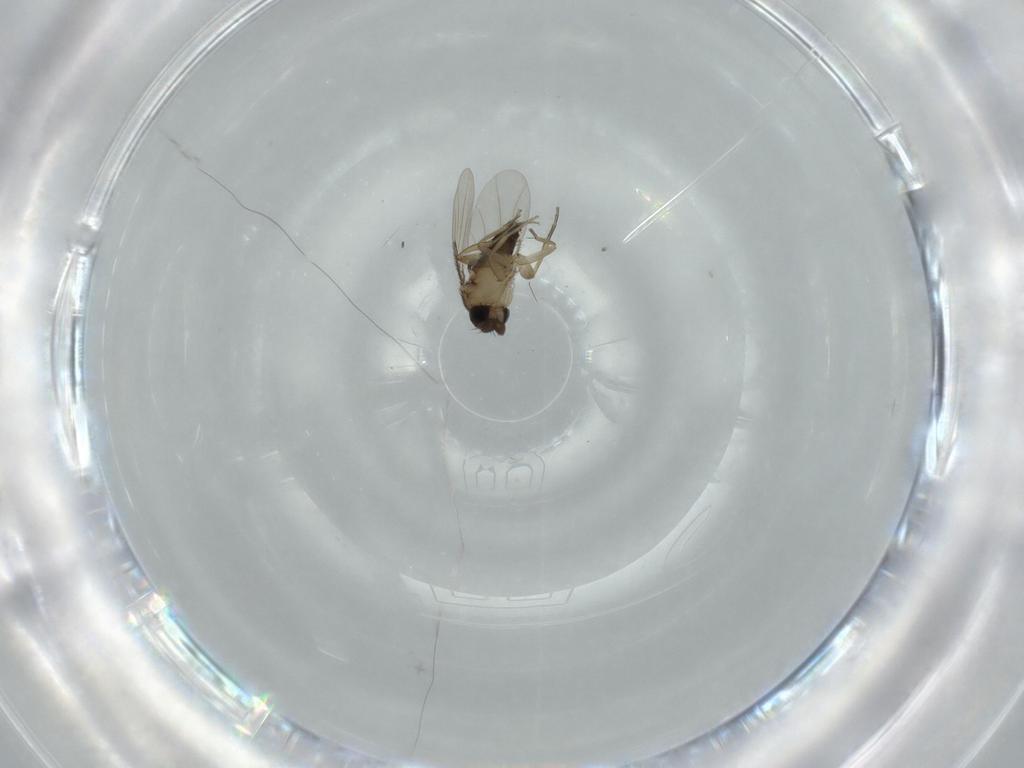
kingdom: Animalia
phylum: Arthropoda
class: Insecta
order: Diptera
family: Phoridae
